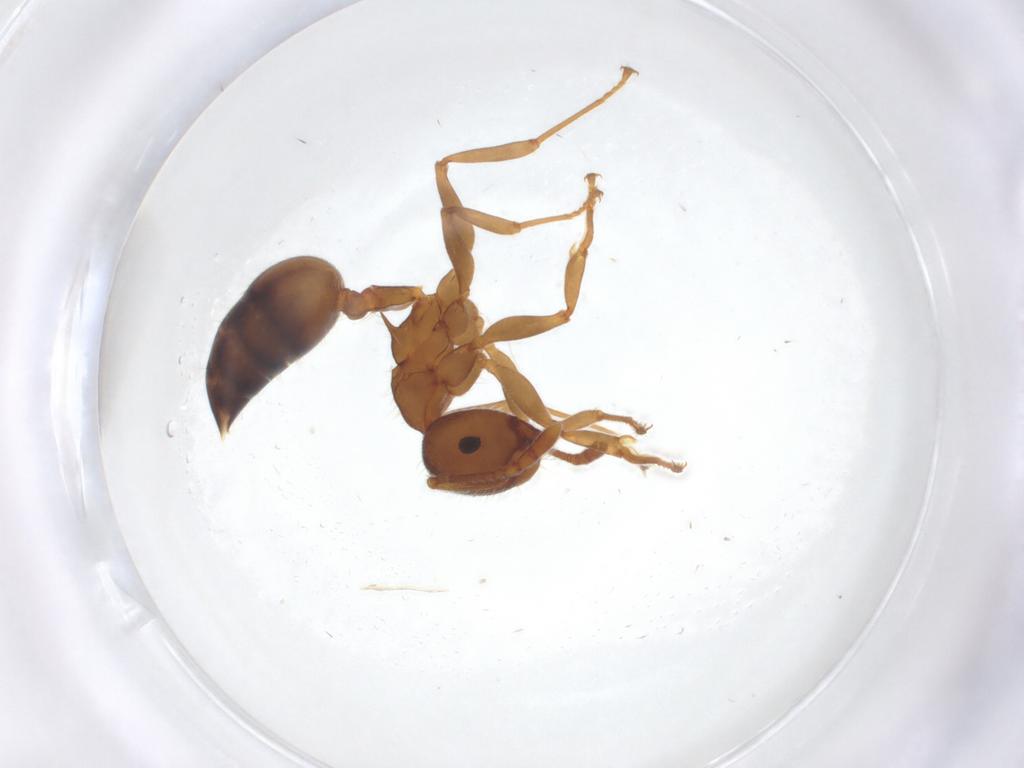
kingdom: Animalia
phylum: Arthropoda
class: Insecta
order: Hymenoptera
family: Formicidae
